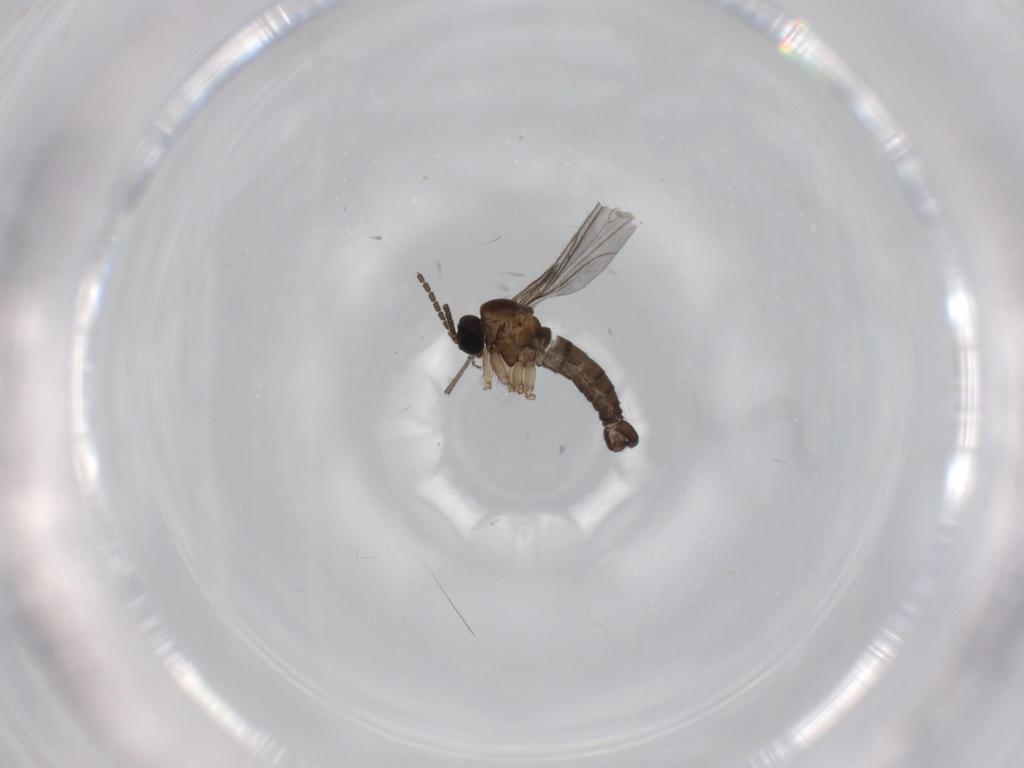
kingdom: Animalia
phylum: Arthropoda
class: Insecta
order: Diptera
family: Sciaridae
